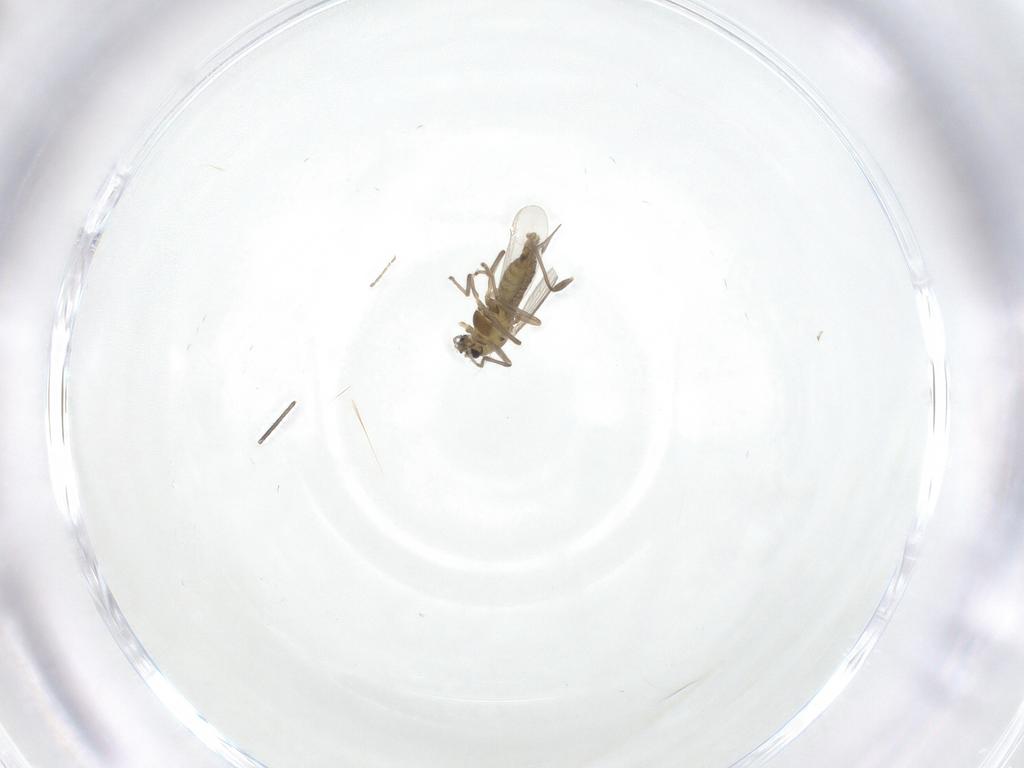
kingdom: Animalia
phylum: Arthropoda
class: Insecta
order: Diptera
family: Chironomidae
